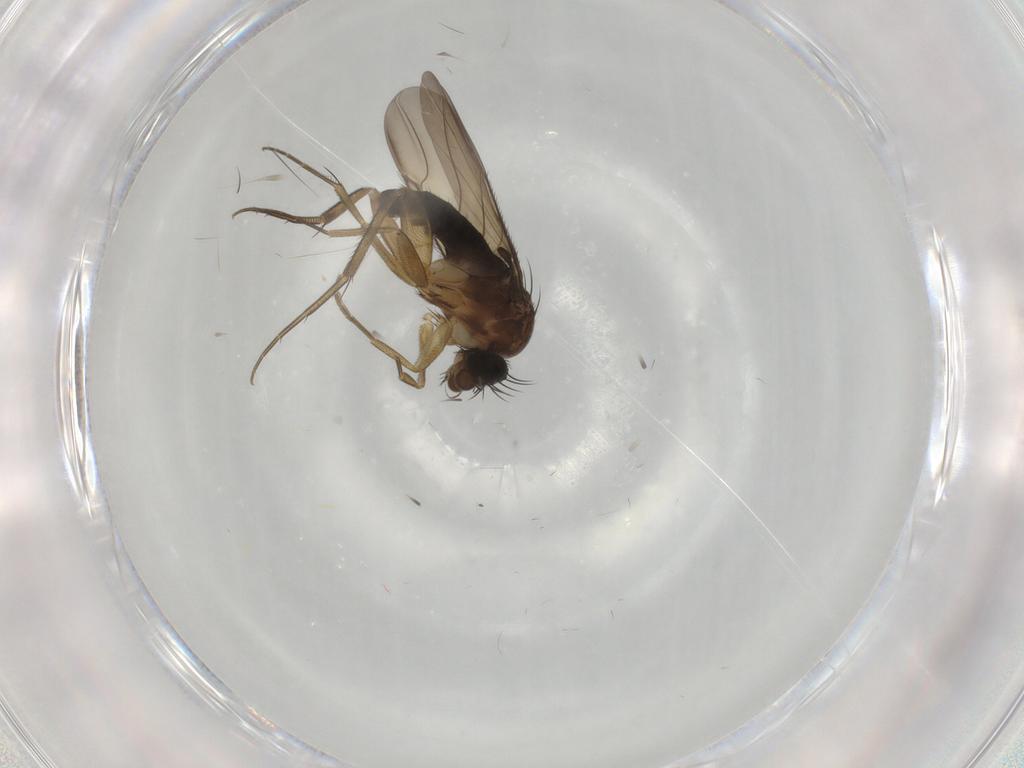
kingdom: Animalia
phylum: Arthropoda
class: Insecta
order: Diptera
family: Phoridae
